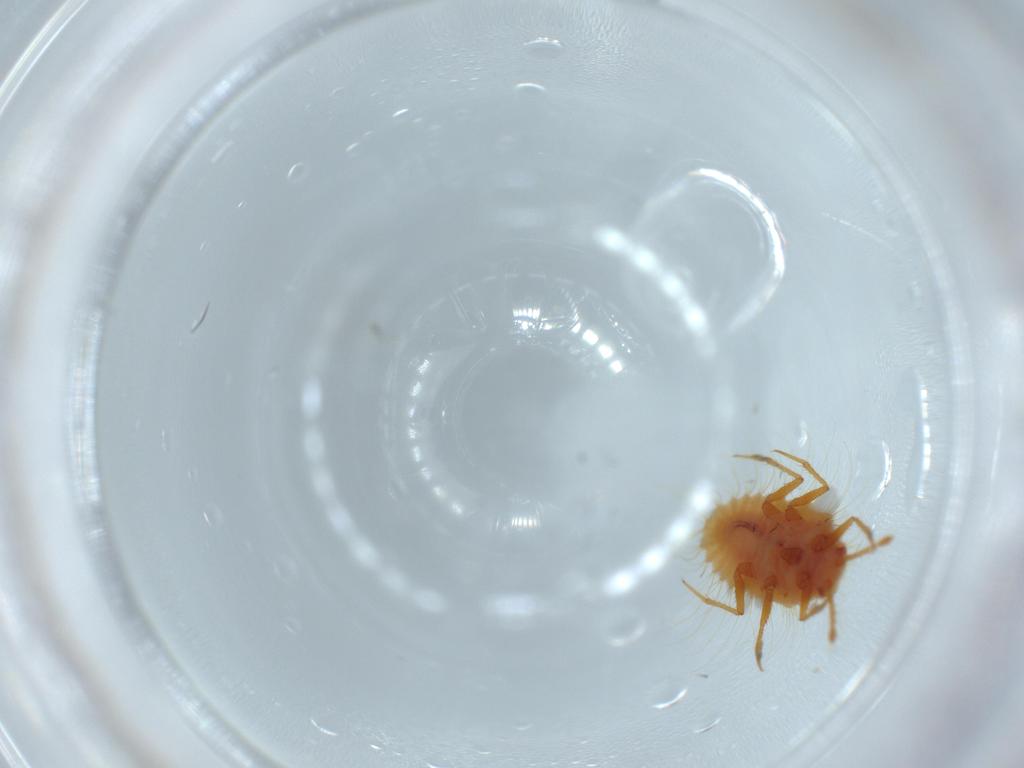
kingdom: Animalia
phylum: Arthropoda
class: Insecta
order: Hemiptera
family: Coccoidea_incertae_sedis
